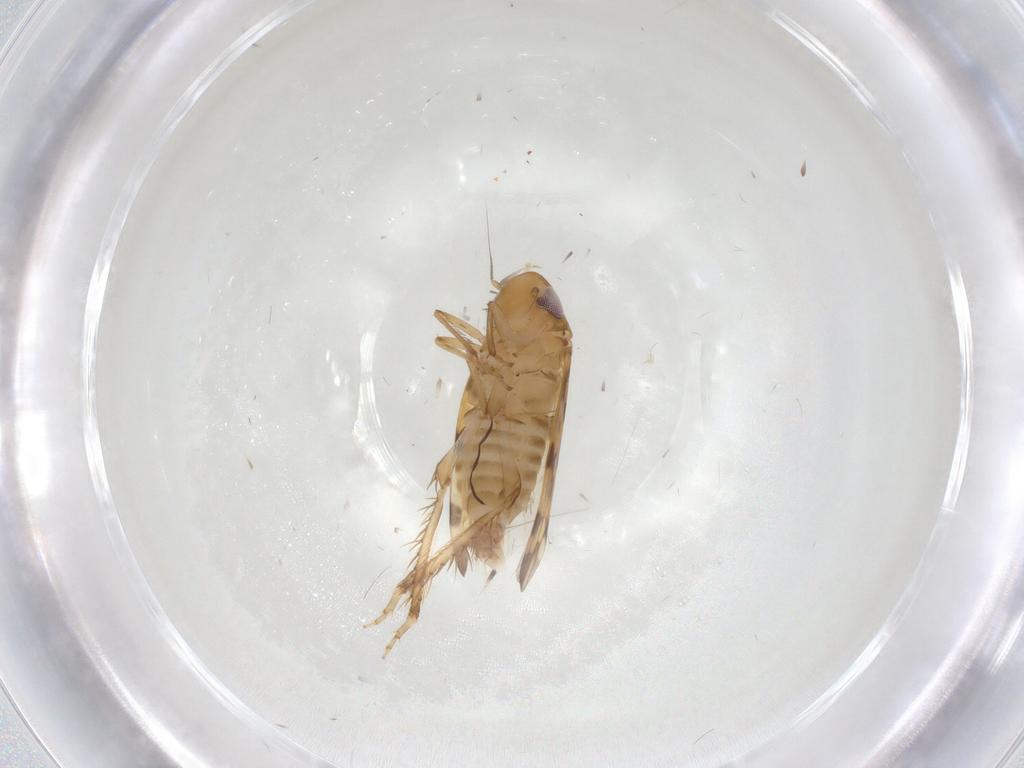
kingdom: Animalia
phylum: Arthropoda
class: Insecta
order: Hemiptera
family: Cicadellidae
